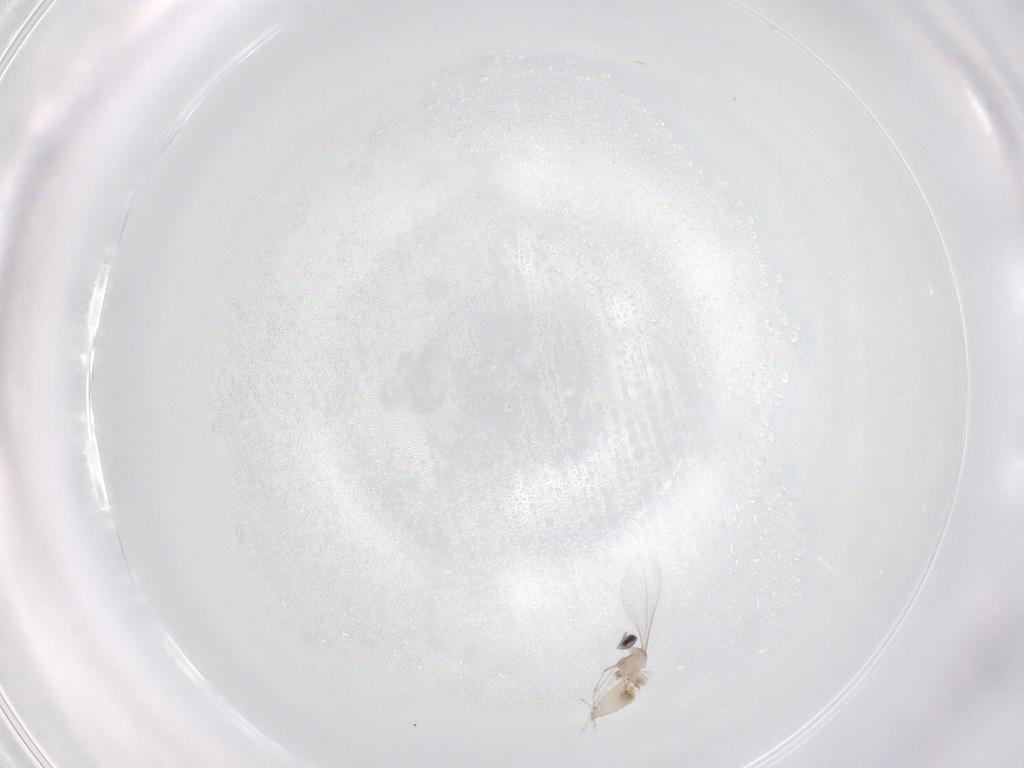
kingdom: Animalia
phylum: Arthropoda
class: Insecta
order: Diptera
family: Cecidomyiidae
